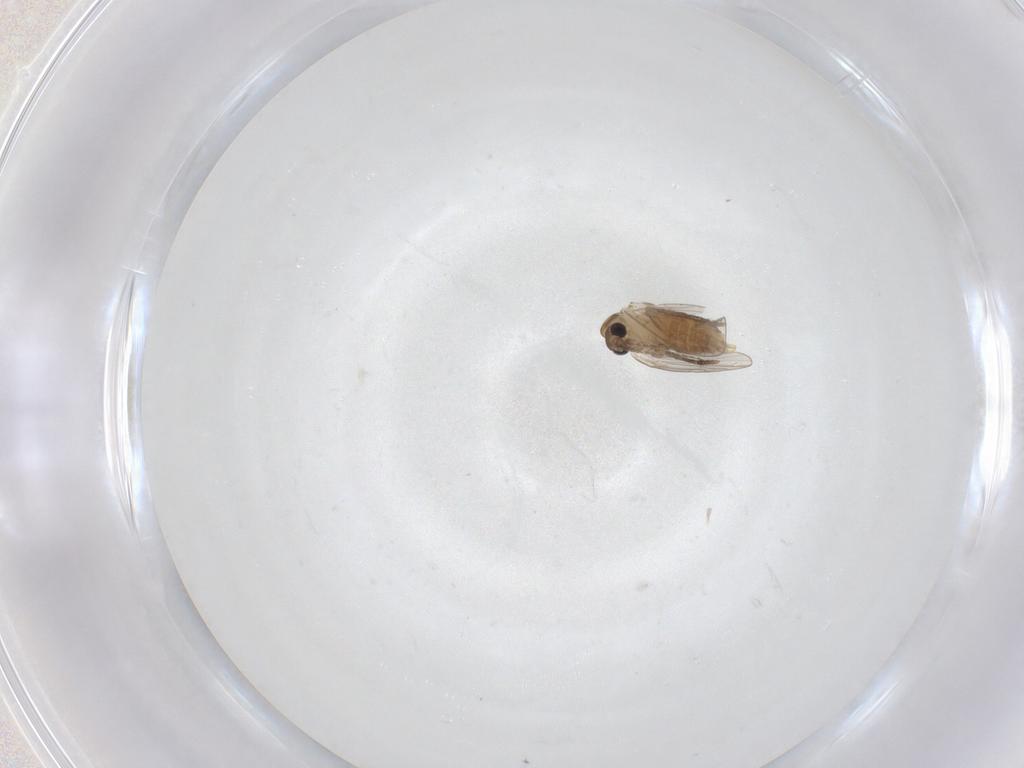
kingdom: Animalia
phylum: Arthropoda
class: Insecta
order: Diptera
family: Psychodidae
